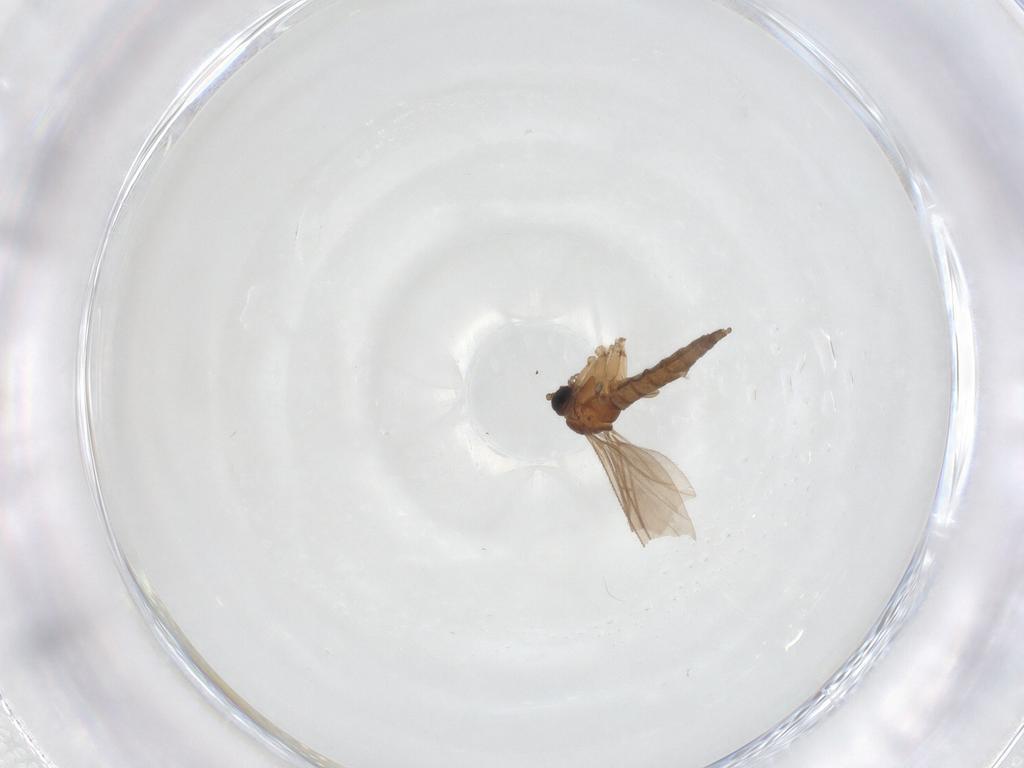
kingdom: Animalia
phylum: Arthropoda
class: Insecta
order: Diptera
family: Sciaridae
